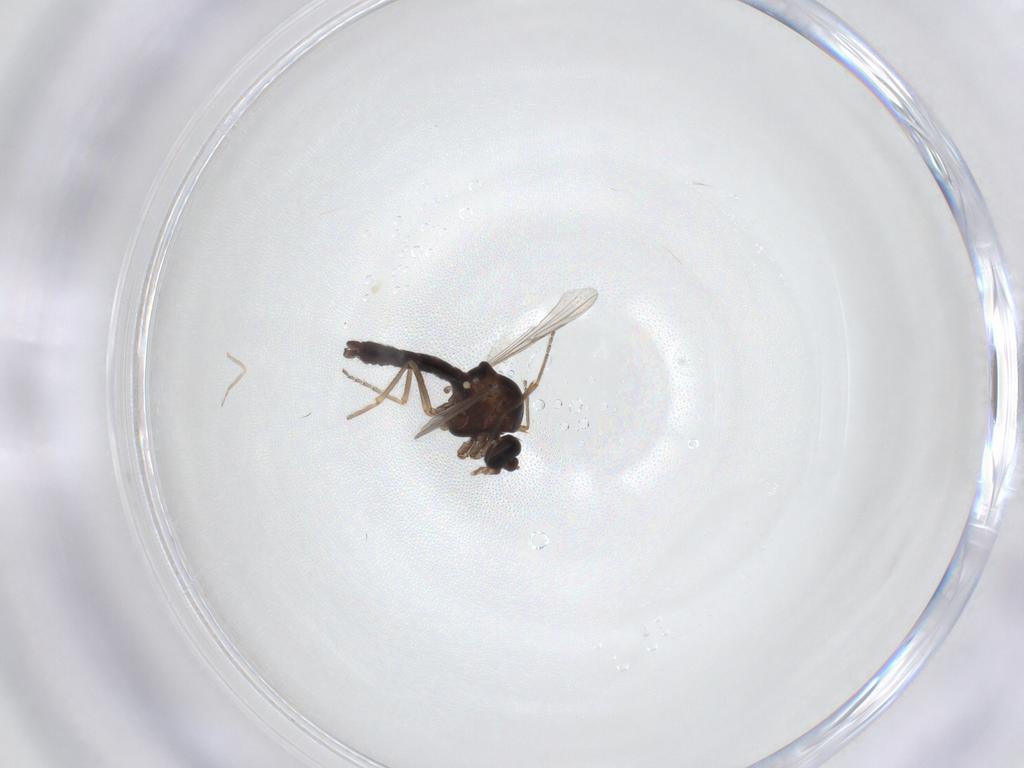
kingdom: Animalia
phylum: Arthropoda
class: Insecta
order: Diptera
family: Ceratopogonidae
